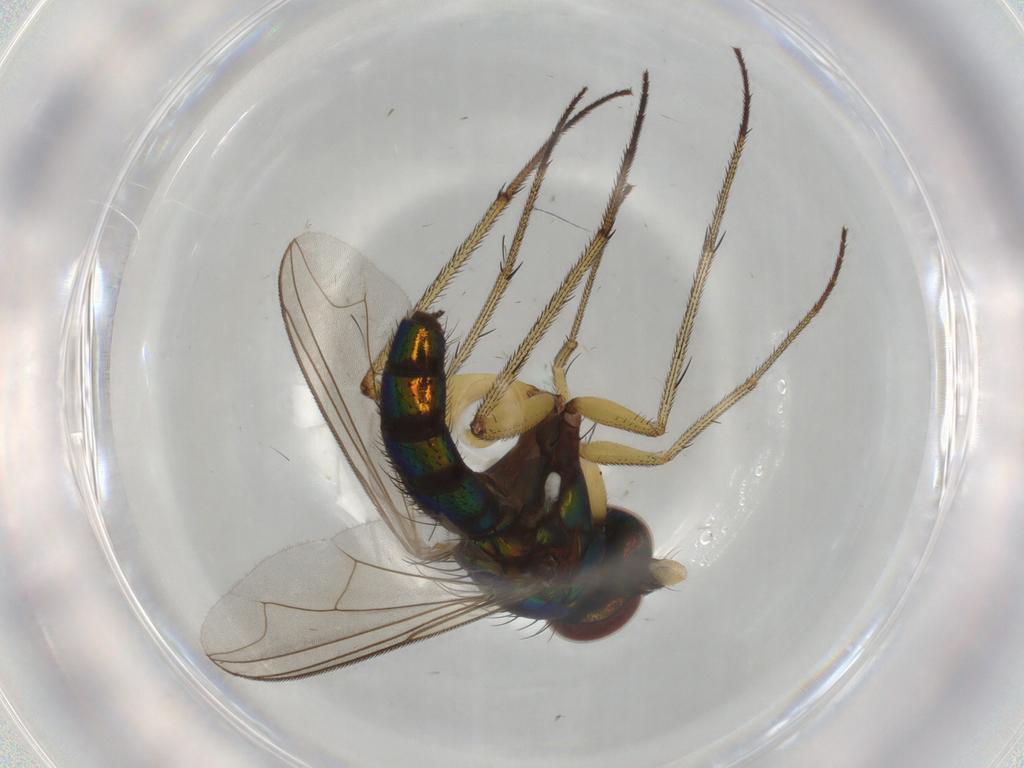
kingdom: Animalia
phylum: Arthropoda
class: Insecta
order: Diptera
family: Dolichopodidae
